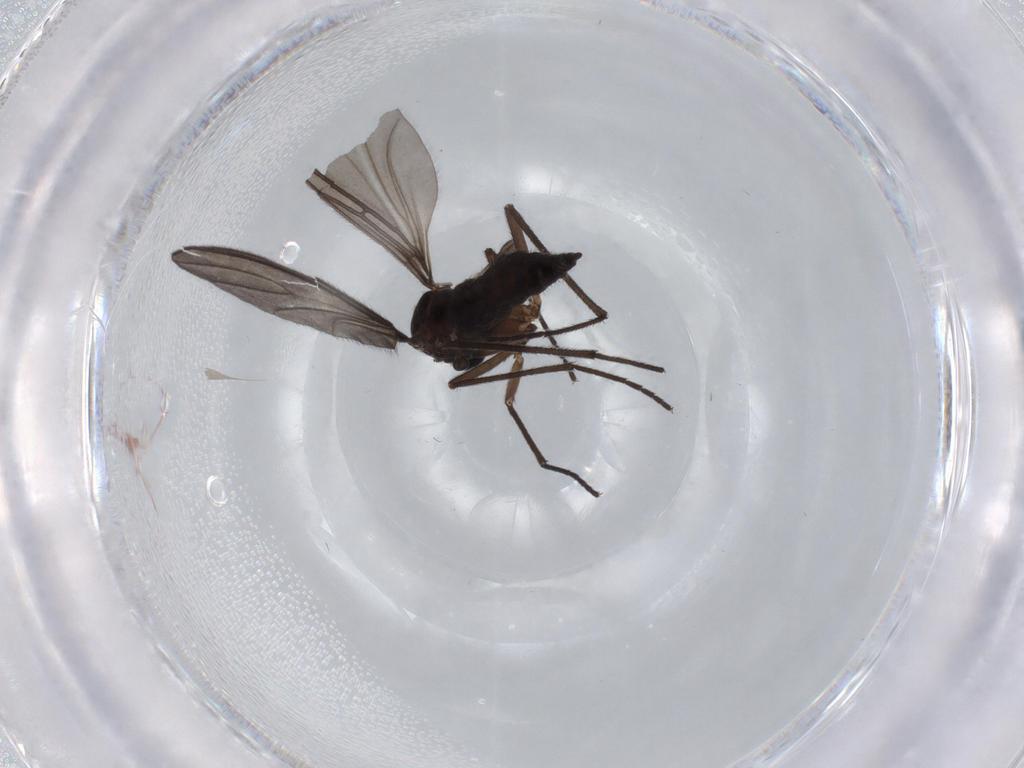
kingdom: Animalia
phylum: Arthropoda
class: Insecta
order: Diptera
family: Sciaridae
